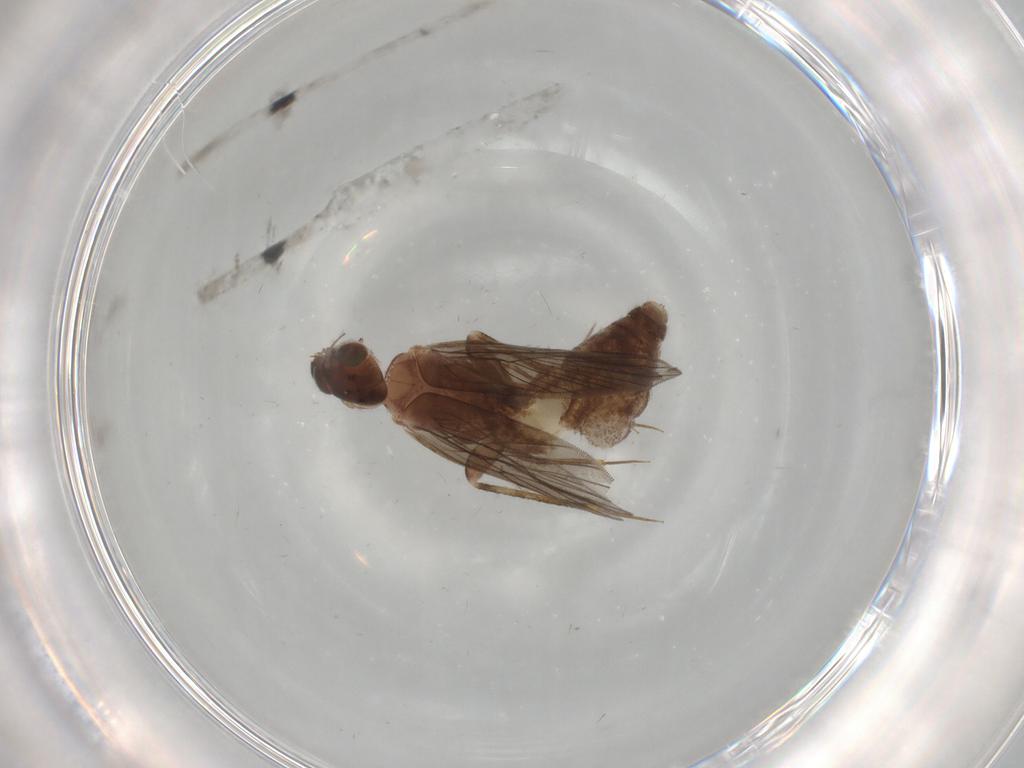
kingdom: Animalia
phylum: Arthropoda
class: Insecta
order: Psocodea
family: Lepidopsocidae
